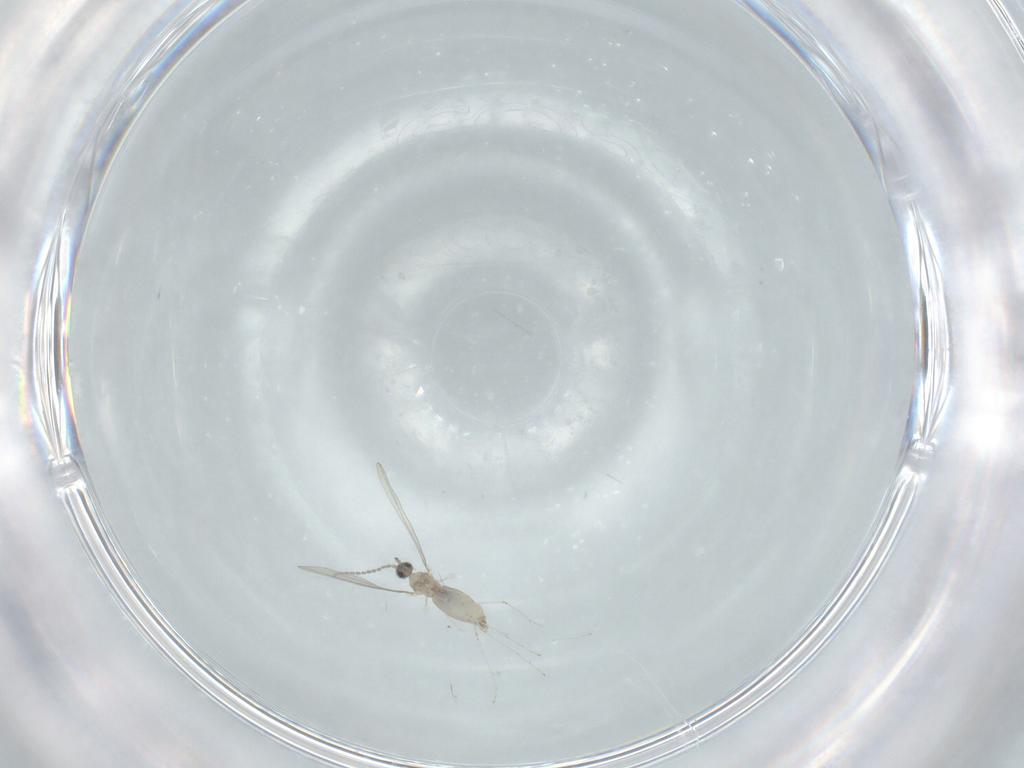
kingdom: Animalia
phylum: Arthropoda
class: Insecta
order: Diptera
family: Cecidomyiidae
